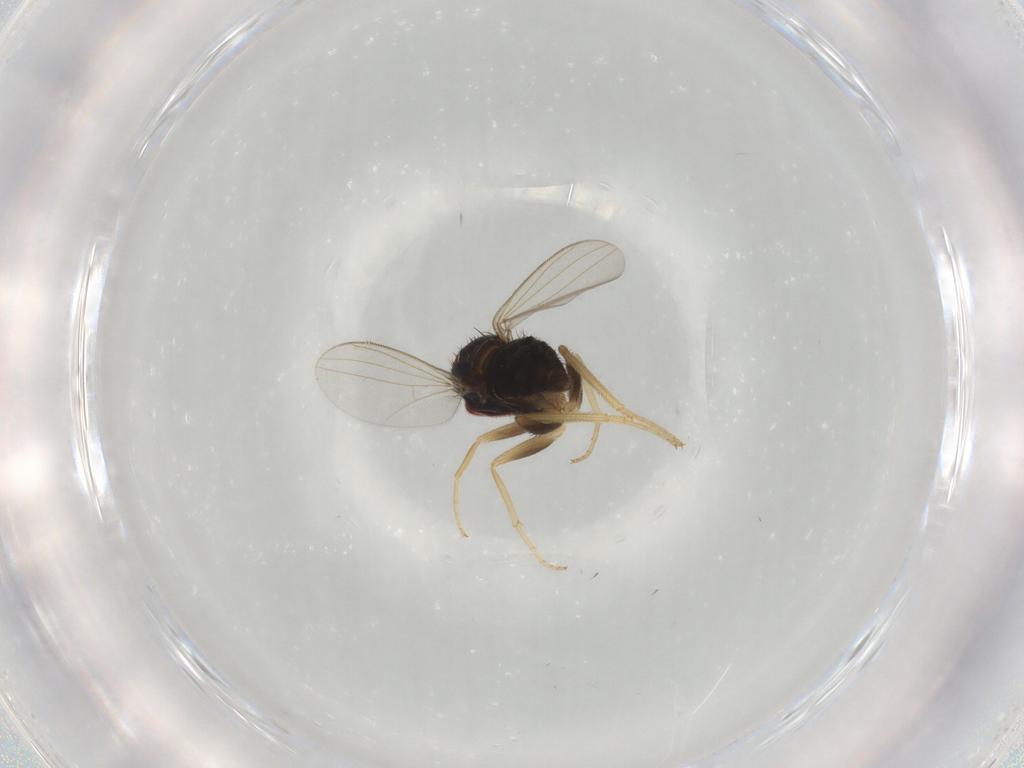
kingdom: Animalia
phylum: Arthropoda
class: Insecta
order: Diptera
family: Dolichopodidae
